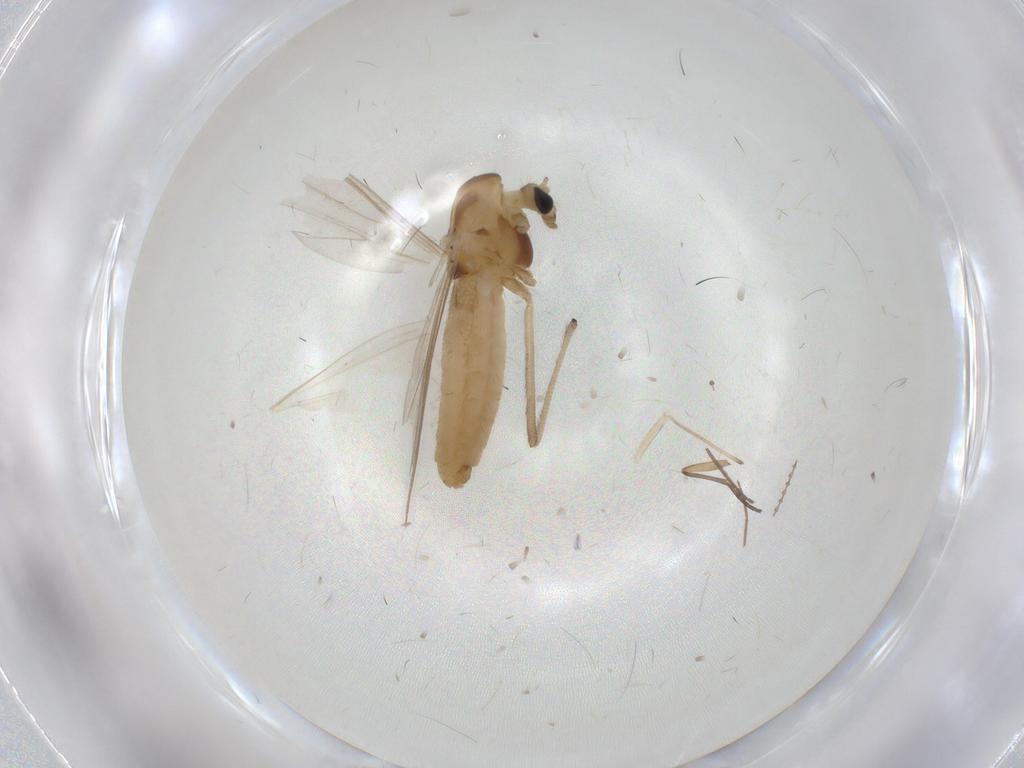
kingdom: Animalia
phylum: Arthropoda
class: Insecta
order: Diptera
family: Chironomidae
